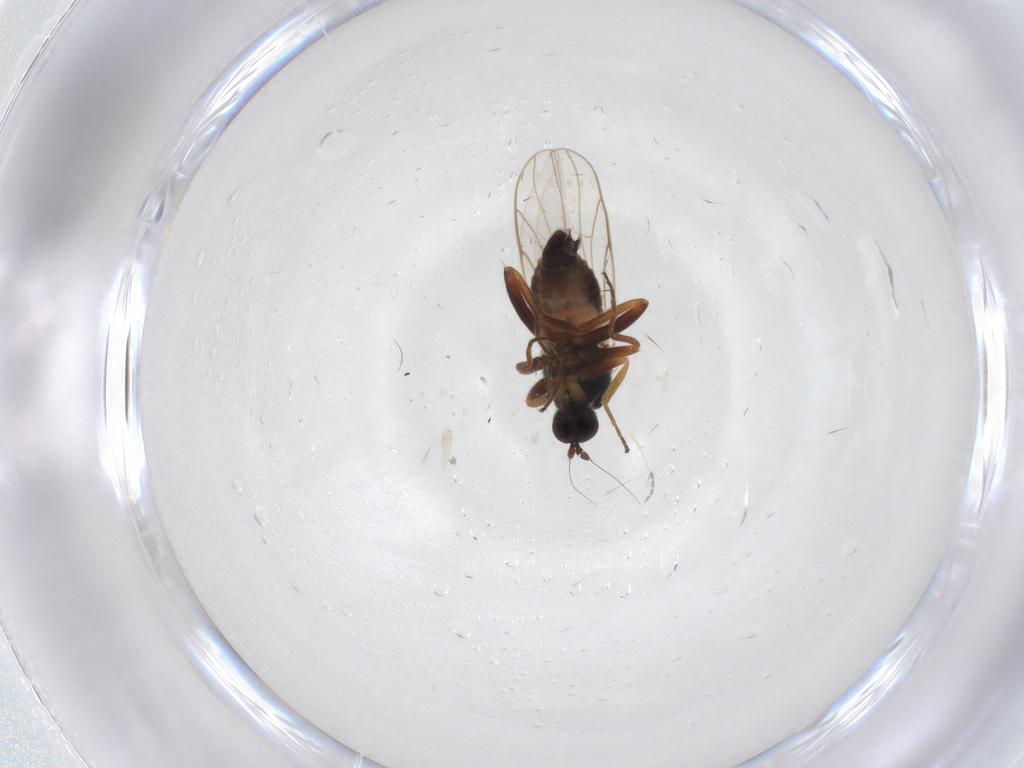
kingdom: Animalia
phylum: Arthropoda
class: Insecta
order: Diptera
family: Hybotidae
